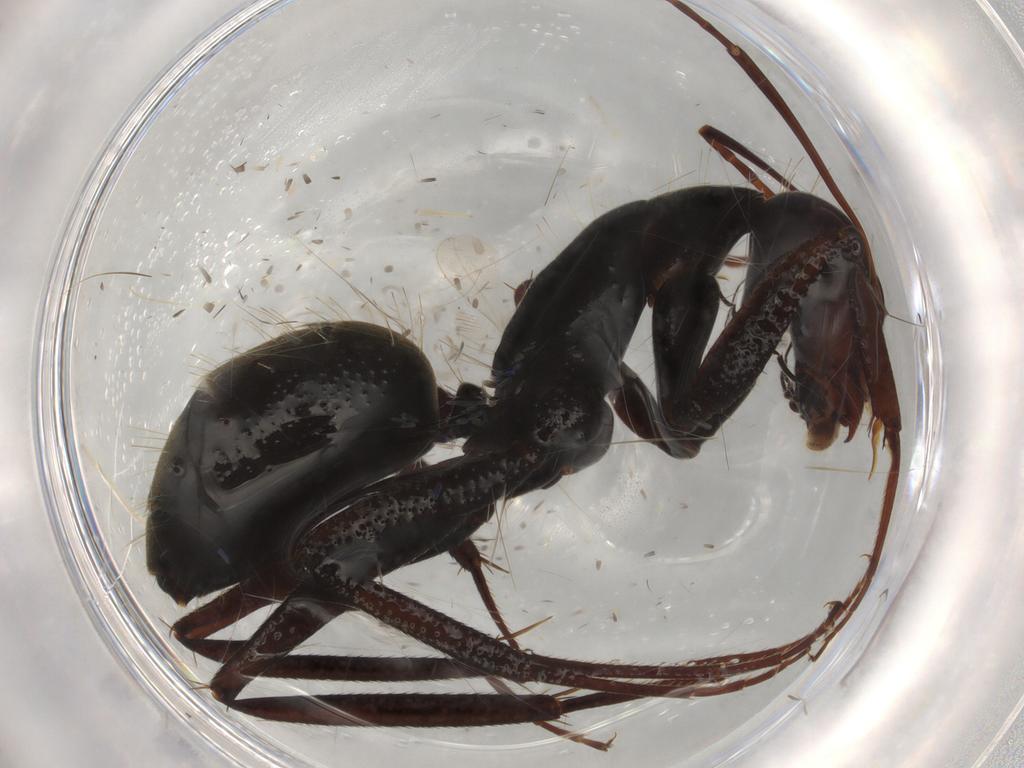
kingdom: Animalia
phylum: Arthropoda
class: Insecta
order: Hymenoptera
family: Formicidae
